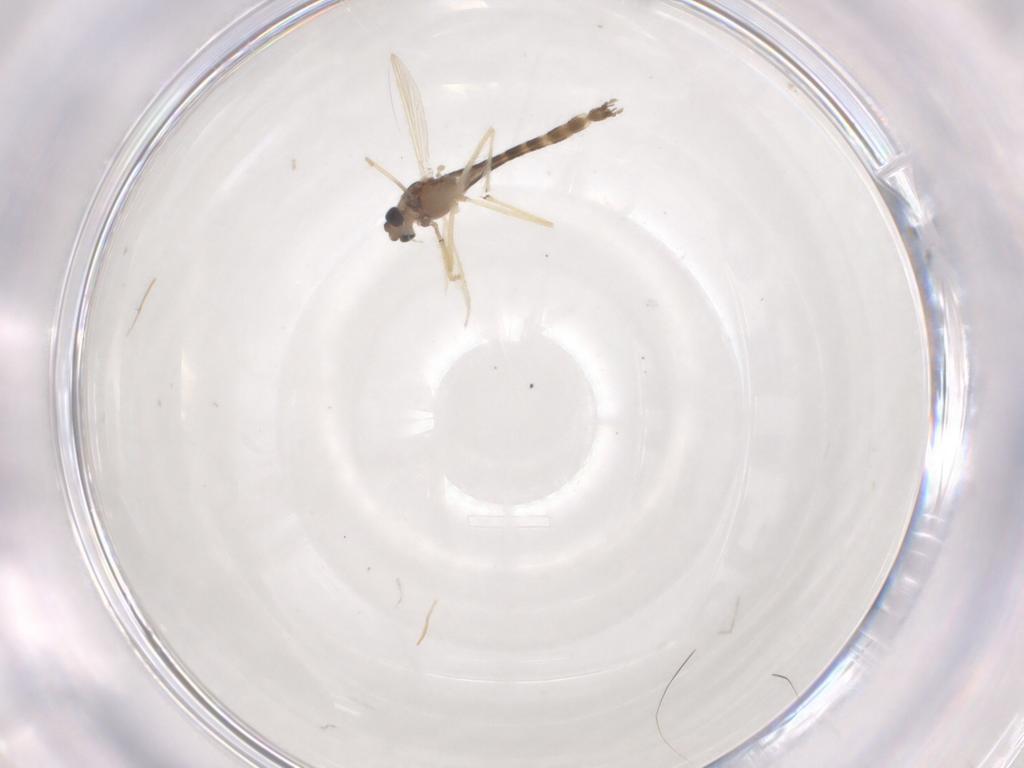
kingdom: Animalia
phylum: Arthropoda
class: Insecta
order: Diptera
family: Chironomidae
